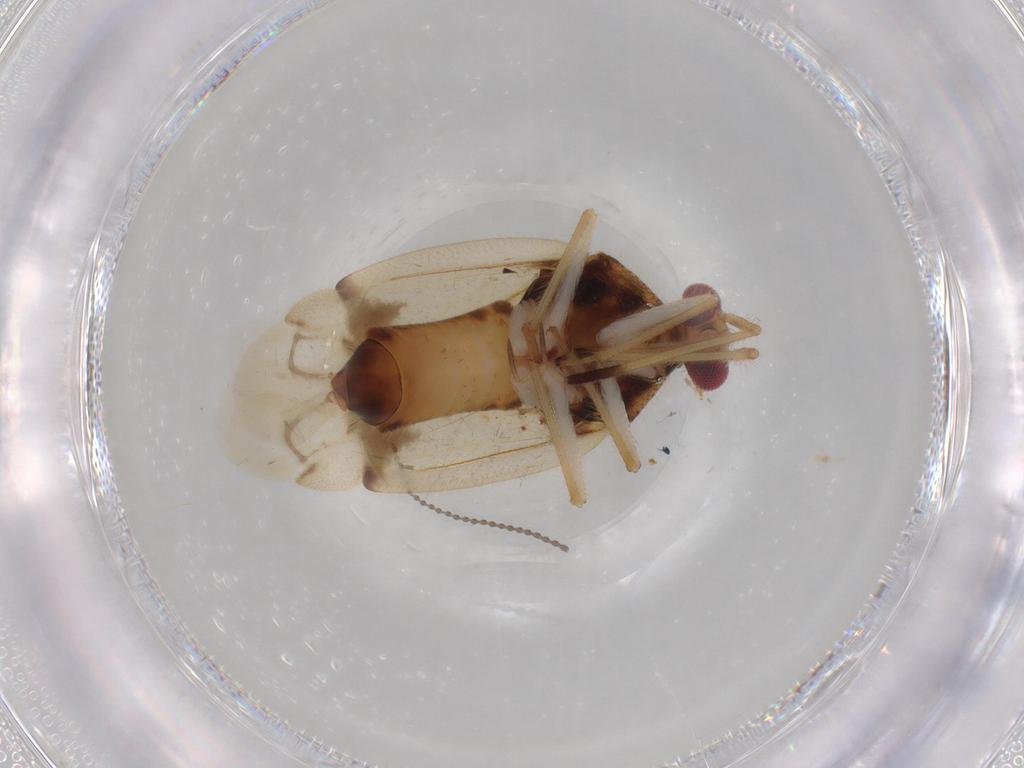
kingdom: Animalia
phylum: Arthropoda
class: Insecta
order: Hemiptera
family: Miridae
